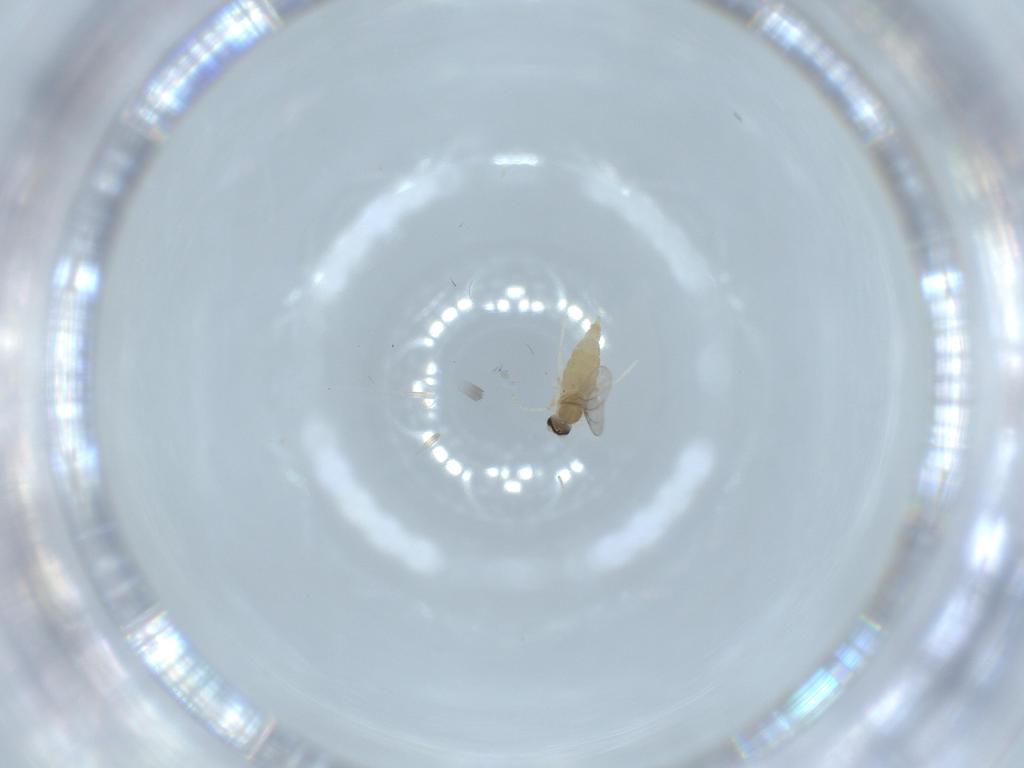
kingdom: Animalia
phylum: Arthropoda
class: Insecta
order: Diptera
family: Cecidomyiidae
